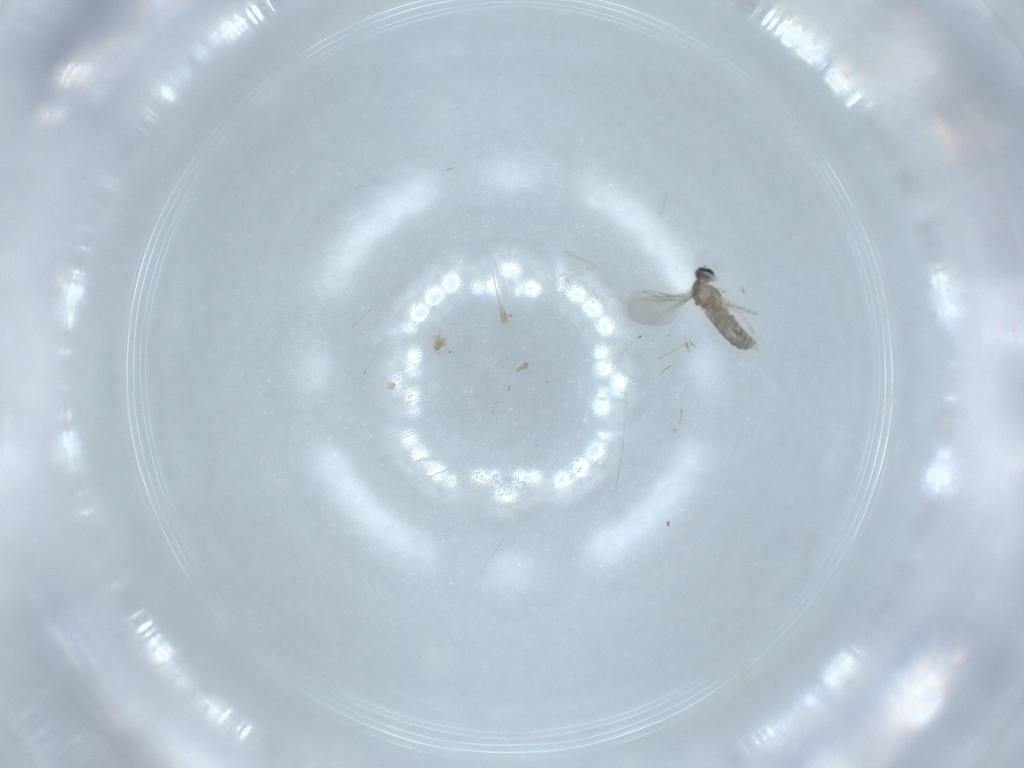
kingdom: Animalia
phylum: Arthropoda
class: Insecta
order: Diptera
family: Cecidomyiidae
